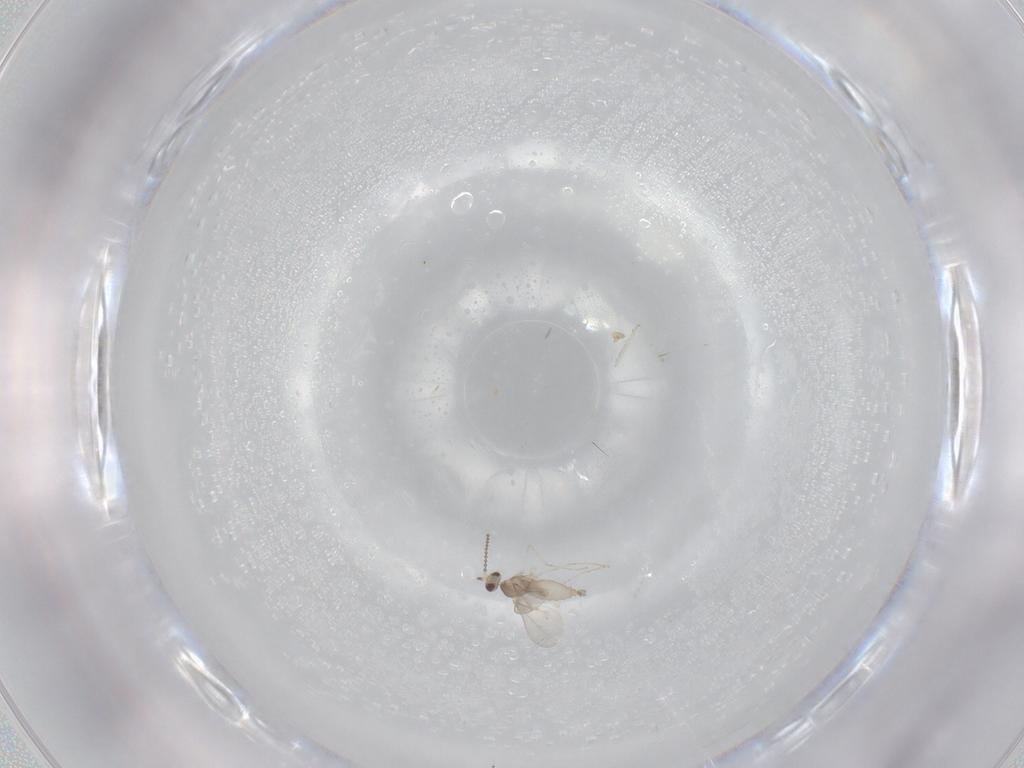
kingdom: Animalia
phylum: Arthropoda
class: Insecta
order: Diptera
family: Cecidomyiidae
